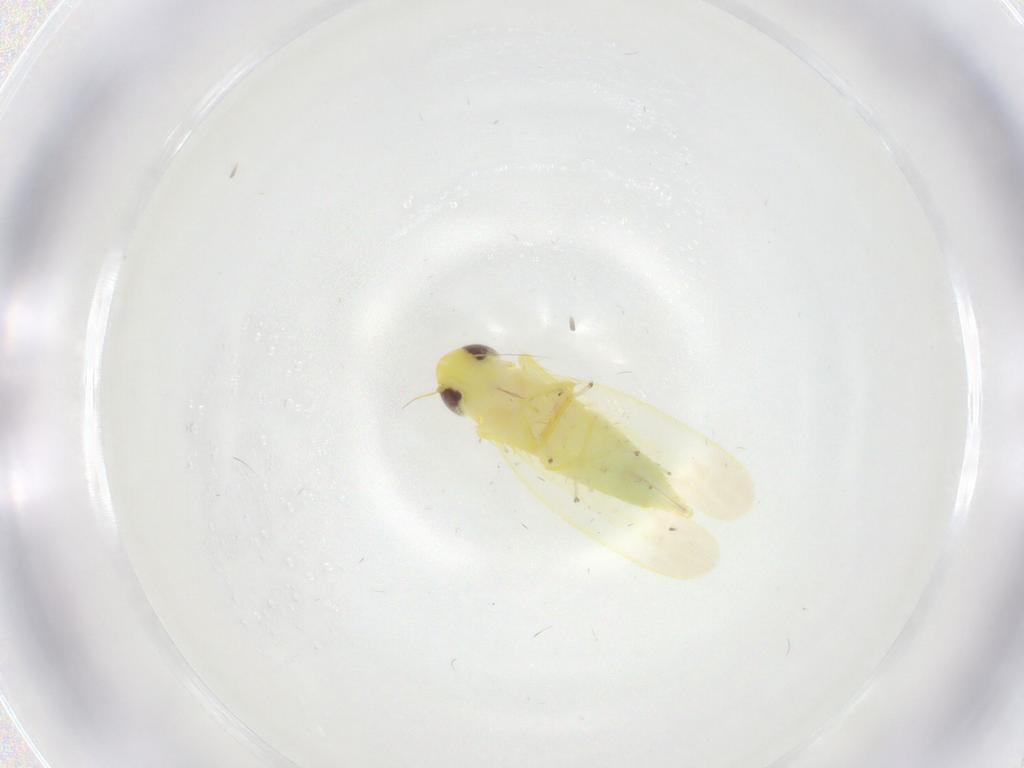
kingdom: Animalia
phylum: Arthropoda
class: Insecta
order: Hemiptera
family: Cicadellidae
